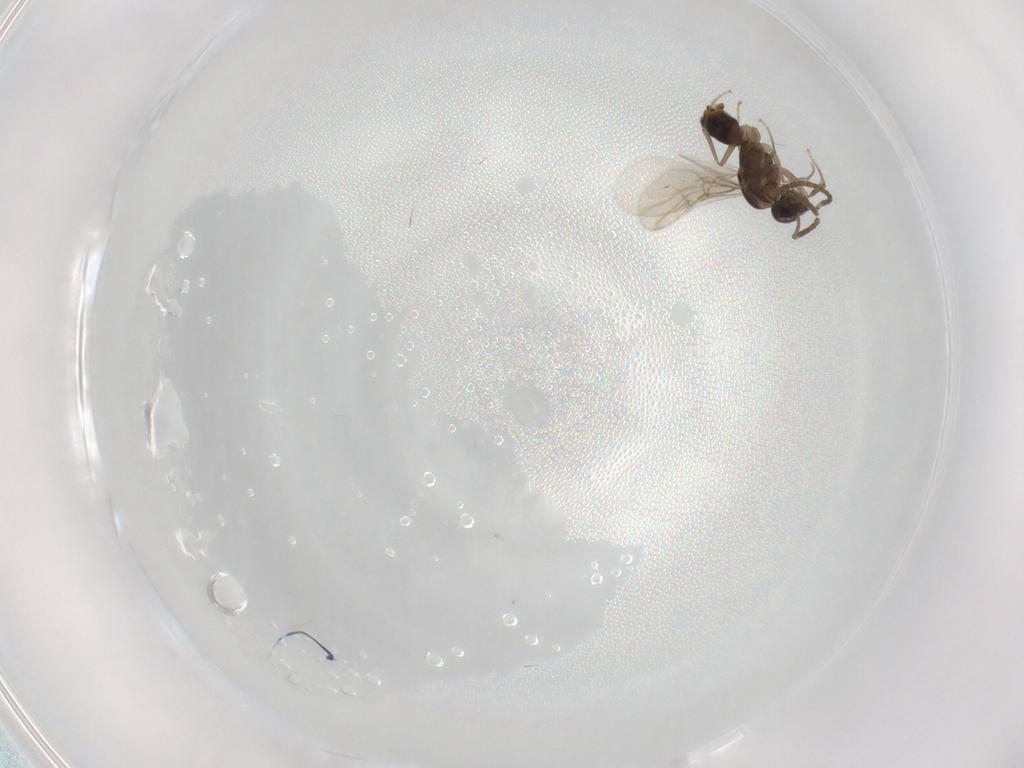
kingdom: Animalia
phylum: Arthropoda
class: Insecta
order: Hymenoptera
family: Formicidae
